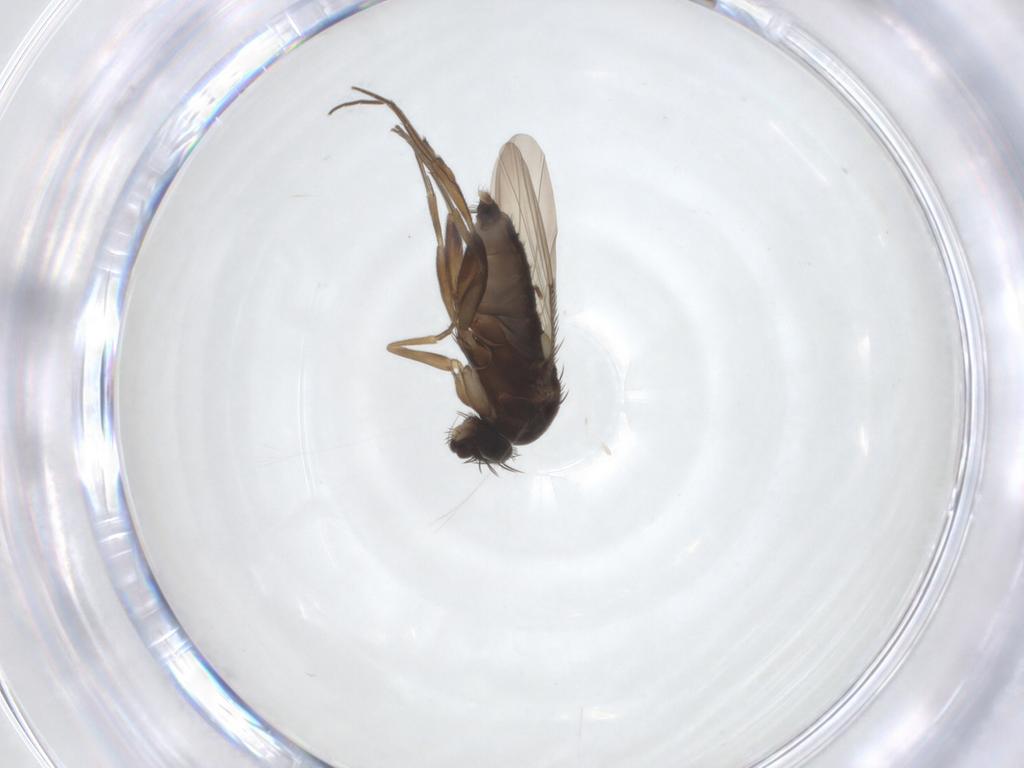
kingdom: Animalia
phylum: Arthropoda
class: Insecta
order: Diptera
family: Phoridae
